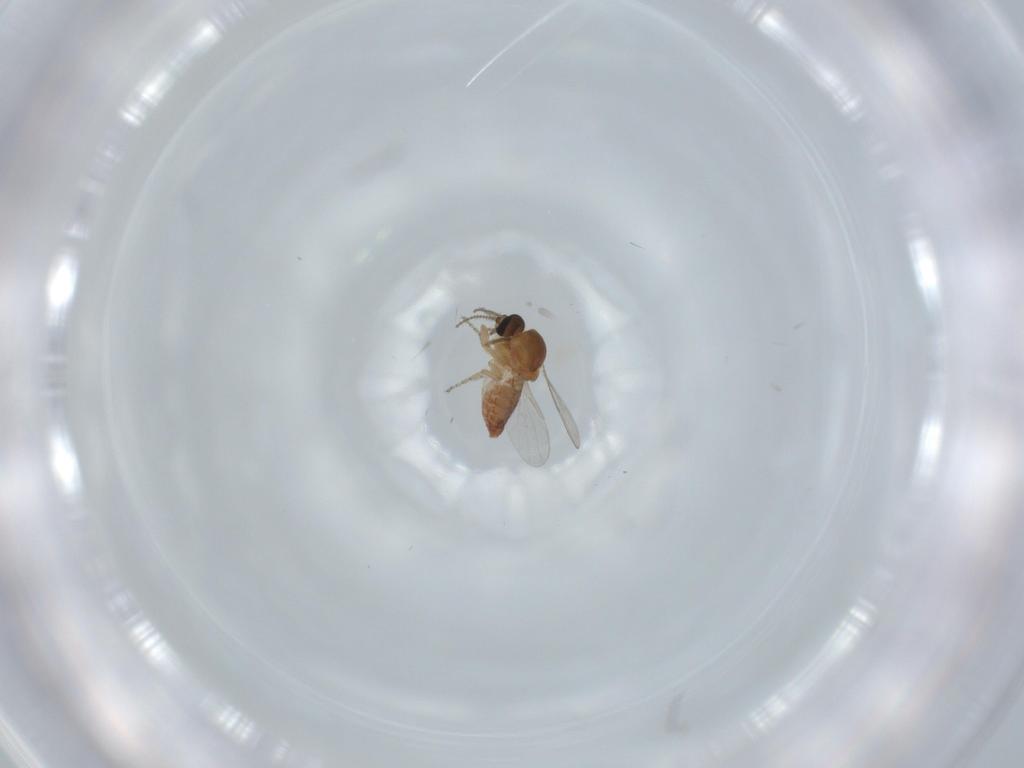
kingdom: Animalia
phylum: Arthropoda
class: Insecta
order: Diptera
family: Ceratopogonidae
